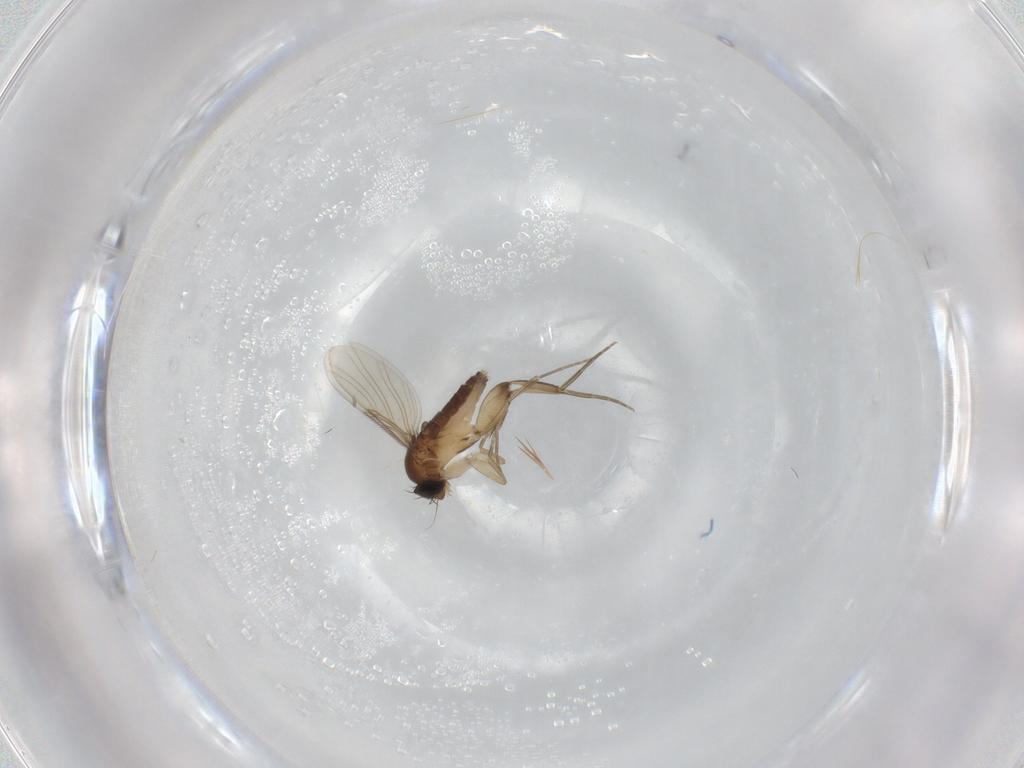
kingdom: Animalia
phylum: Arthropoda
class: Insecta
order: Diptera
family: Phoridae
